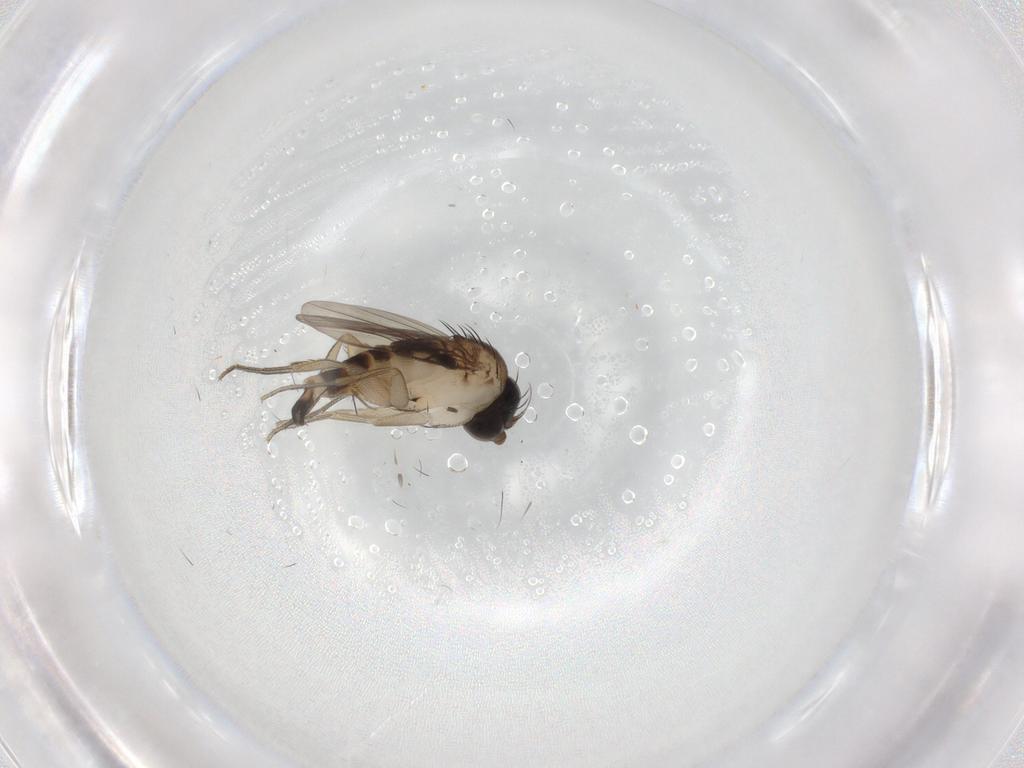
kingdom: Animalia
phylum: Arthropoda
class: Insecta
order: Diptera
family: Phoridae
